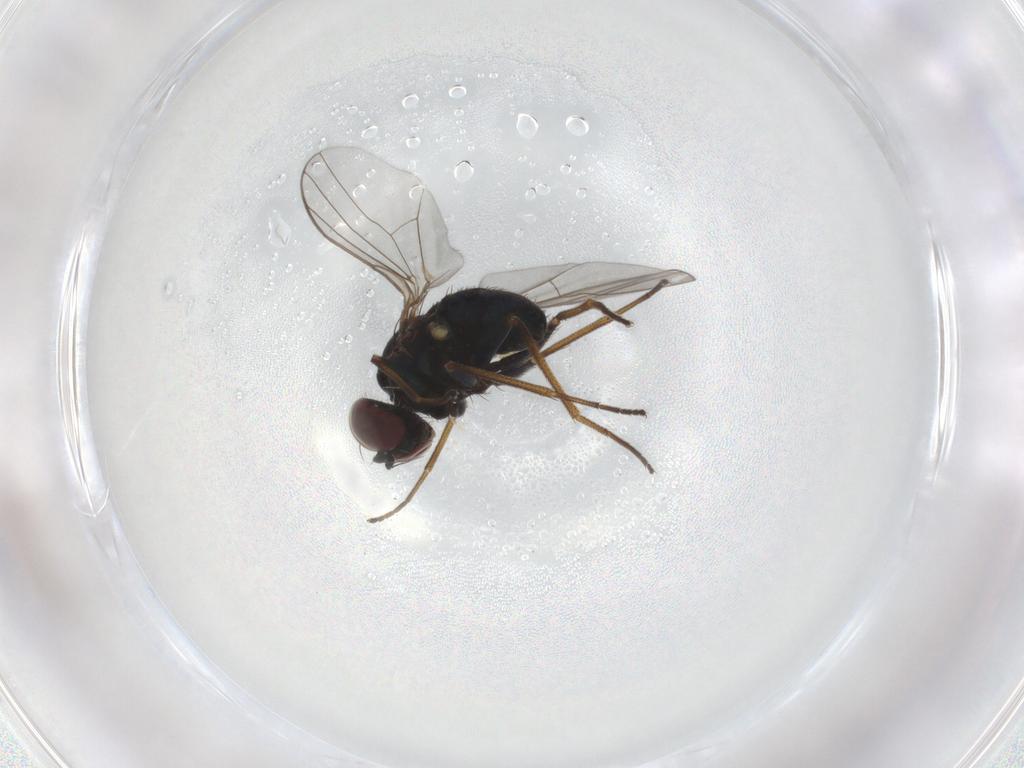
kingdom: Animalia
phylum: Arthropoda
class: Insecta
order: Diptera
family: Dolichopodidae
